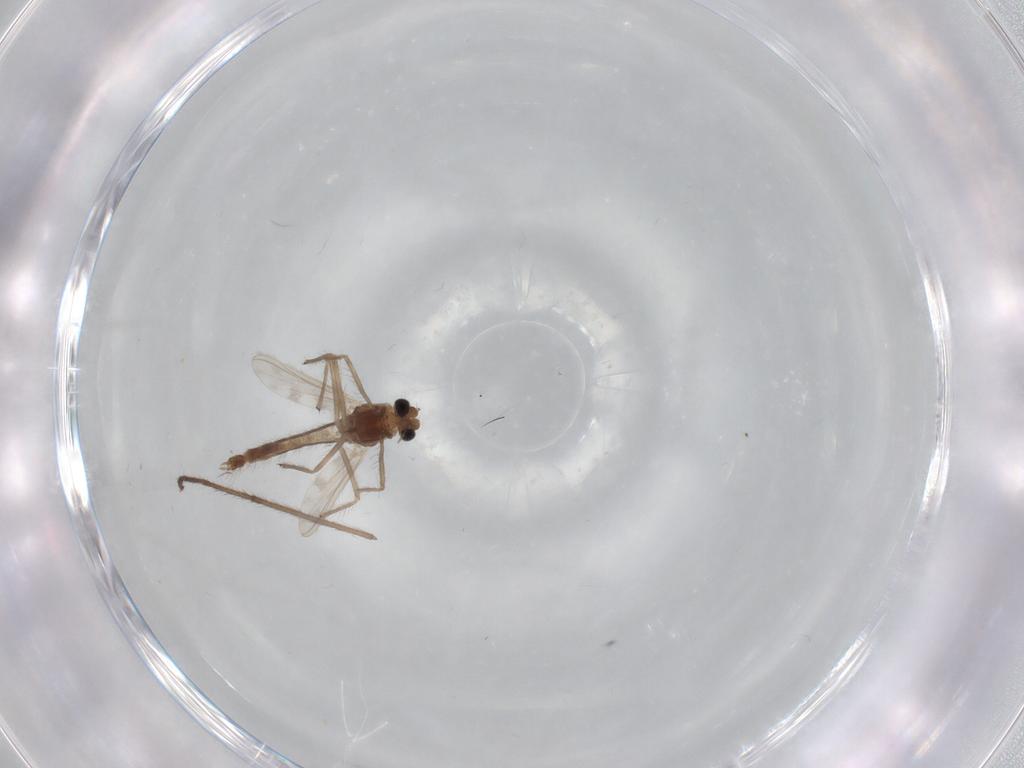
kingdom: Animalia
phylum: Arthropoda
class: Insecta
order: Diptera
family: Chironomidae
